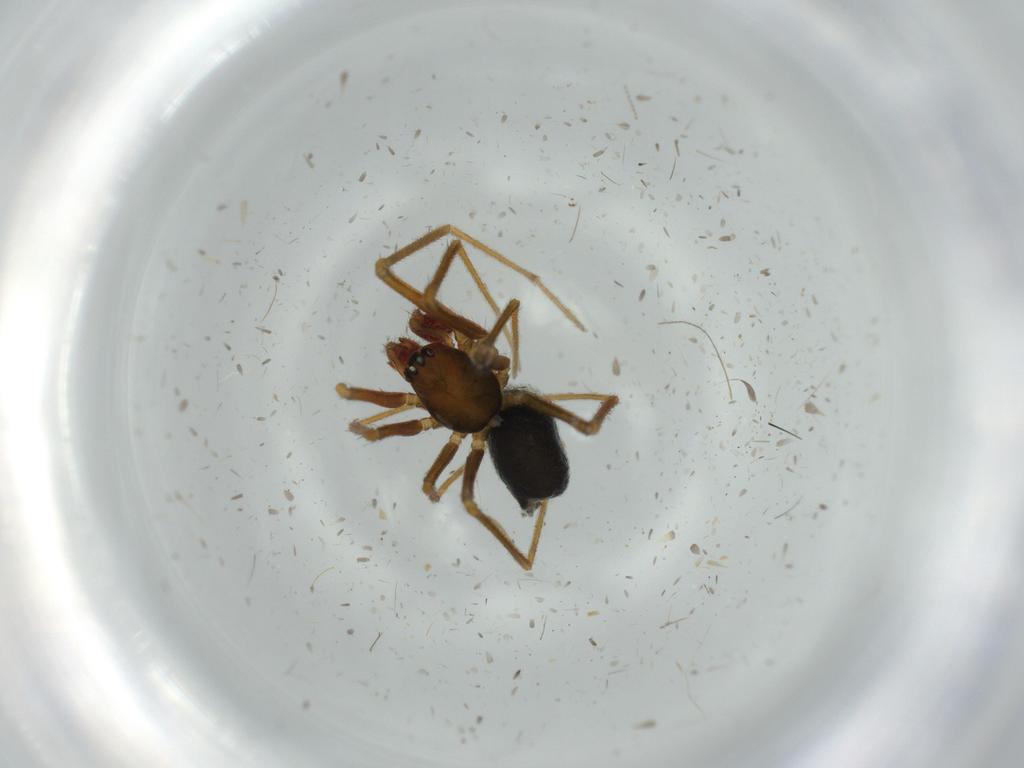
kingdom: Animalia
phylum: Arthropoda
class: Arachnida
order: Araneae
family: Linyphiidae
